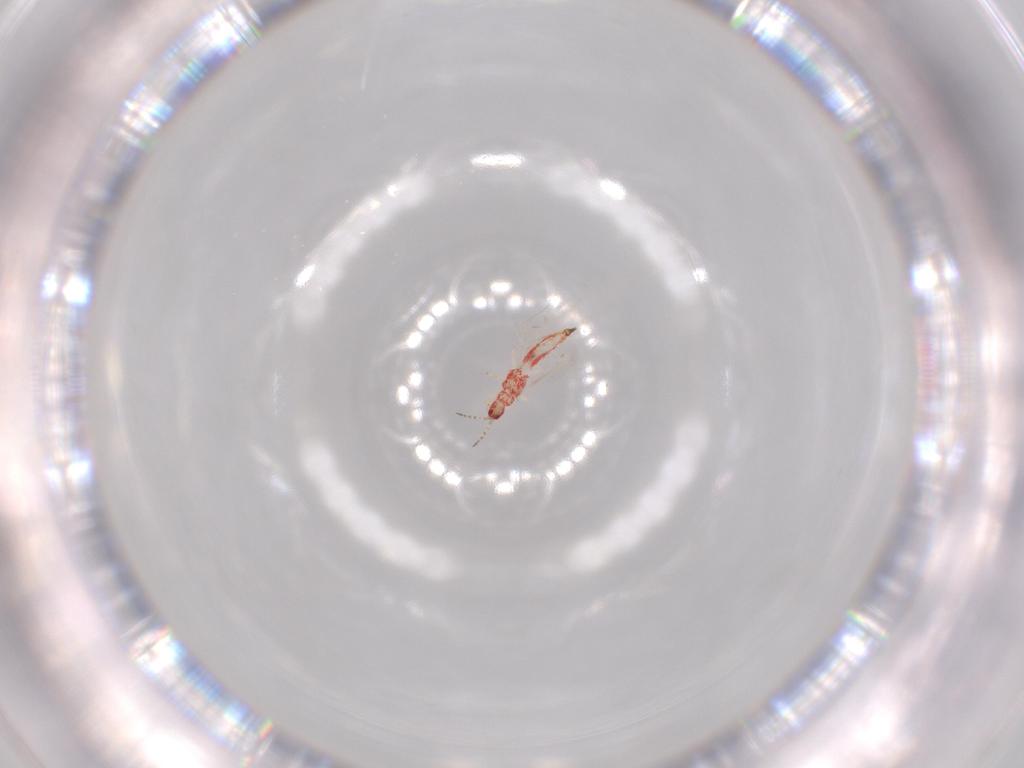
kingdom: Animalia
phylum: Arthropoda
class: Insecta
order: Thysanoptera
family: Phlaeothripidae
